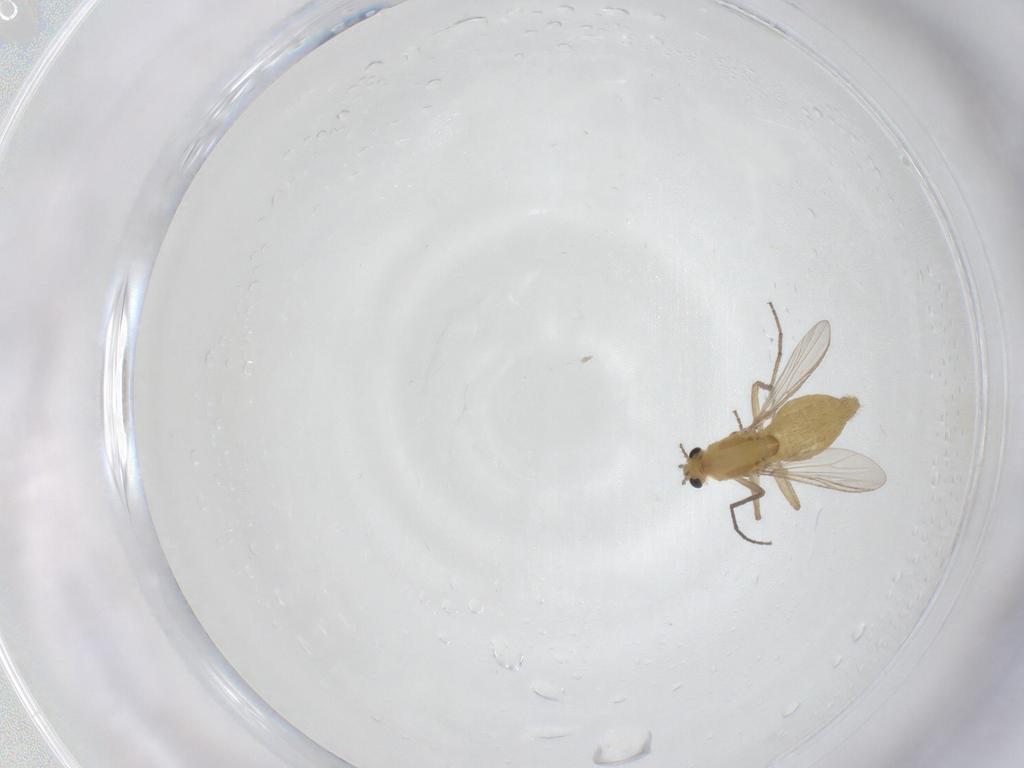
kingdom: Animalia
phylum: Arthropoda
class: Insecta
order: Diptera
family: Chironomidae
